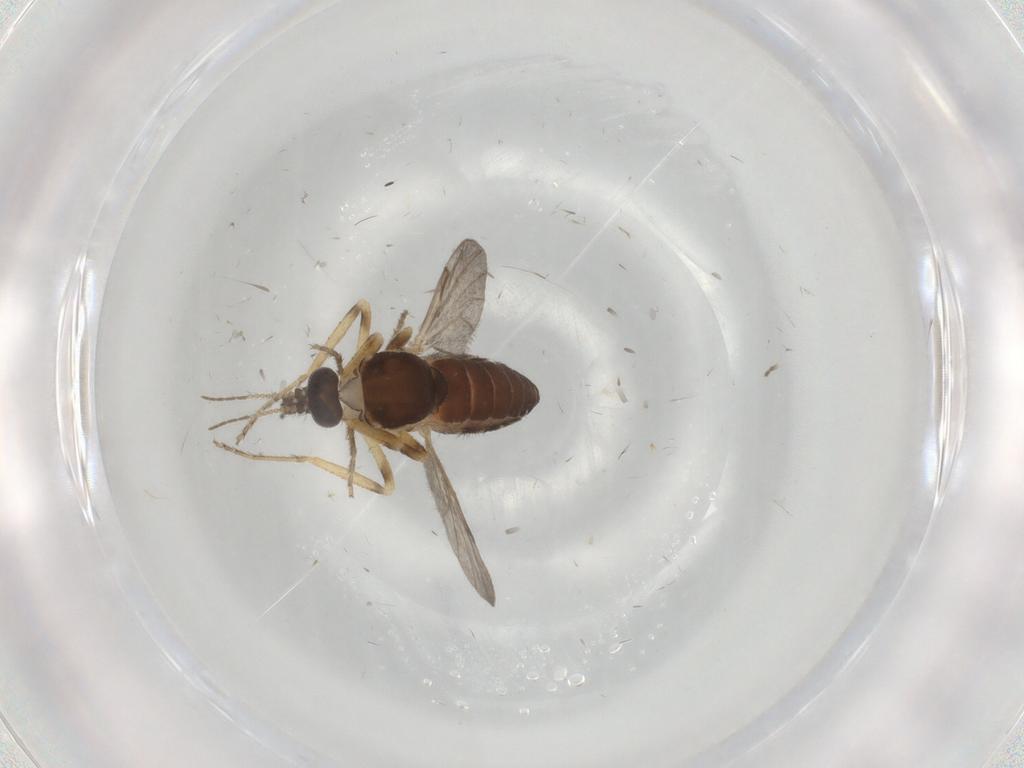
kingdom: Animalia
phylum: Arthropoda
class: Insecta
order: Diptera
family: Ceratopogonidae
